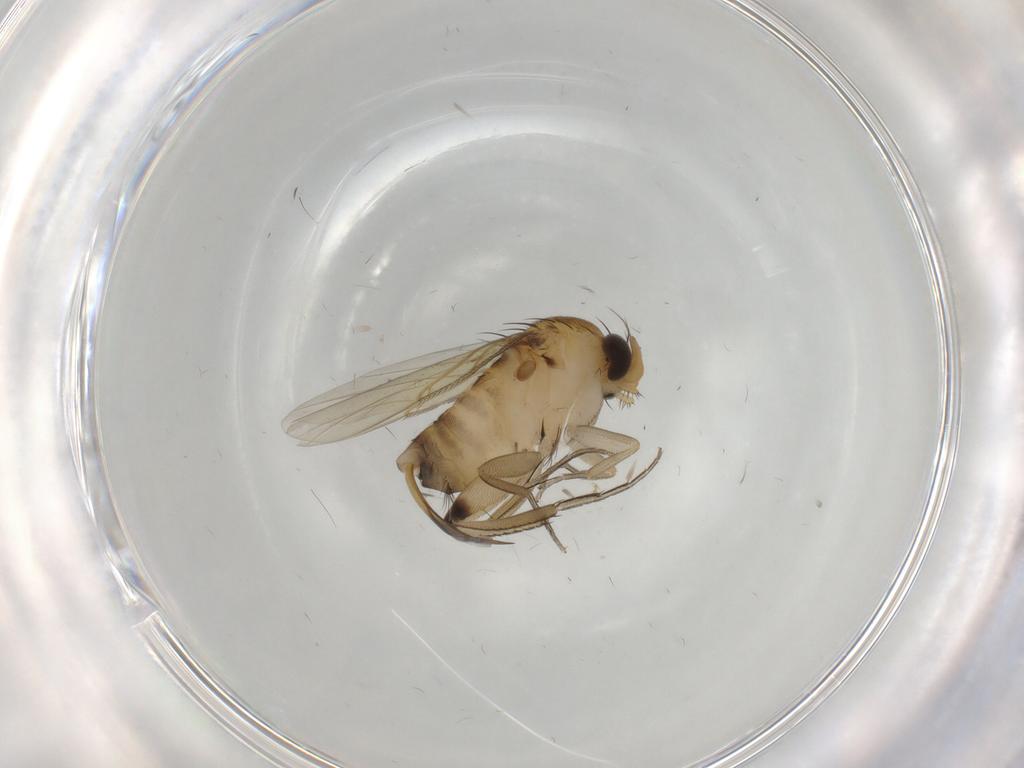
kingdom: Animalia
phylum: Arthropoda
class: Insecta
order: Diptera
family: Phoridae
